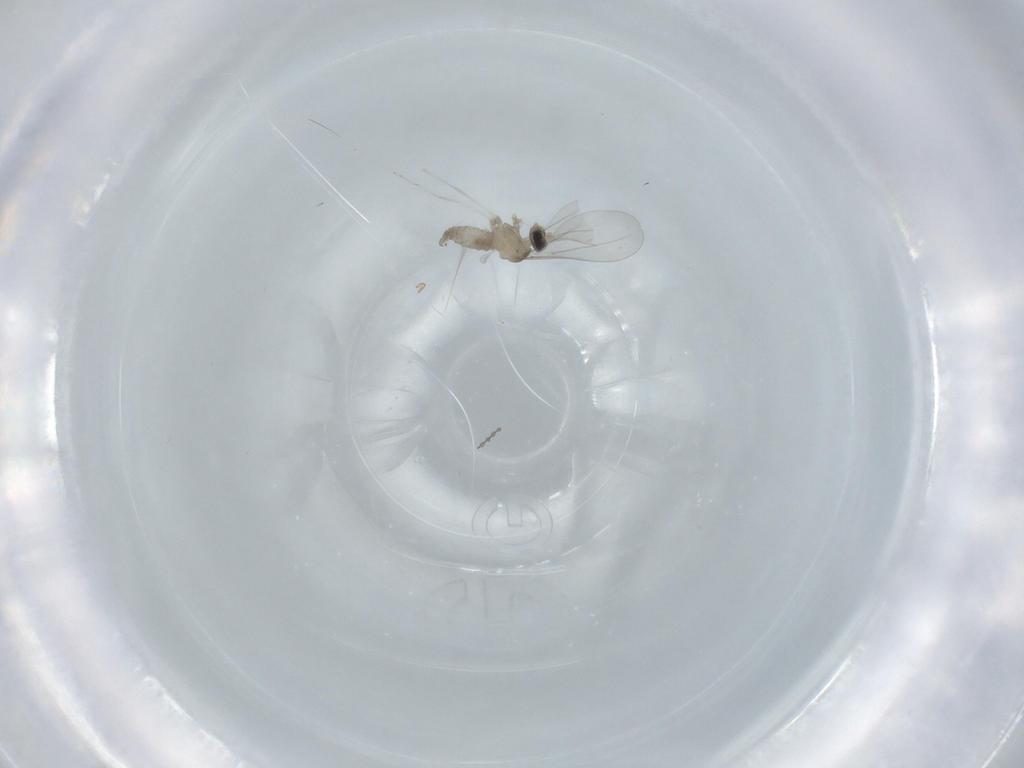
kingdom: Animalia
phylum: Arthropoda
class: Insecta
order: Diptera
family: Cecidomyiidae
